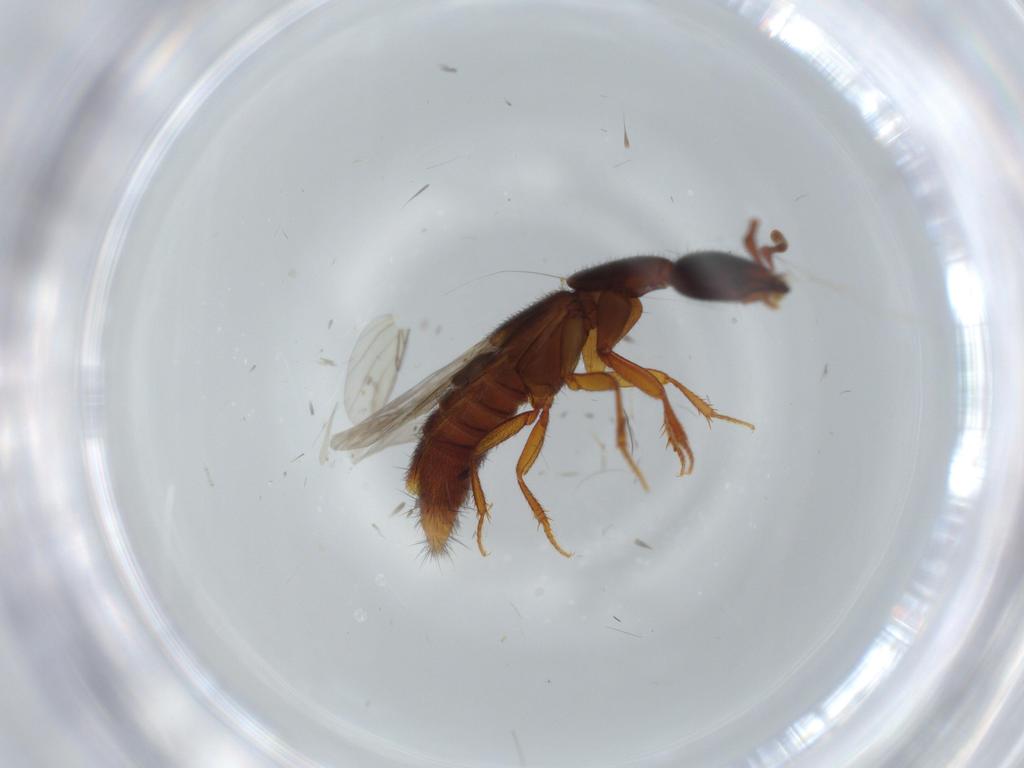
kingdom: Animalia
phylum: Arthropoda
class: Insecta
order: Coleoptera
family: Staphylinidae
